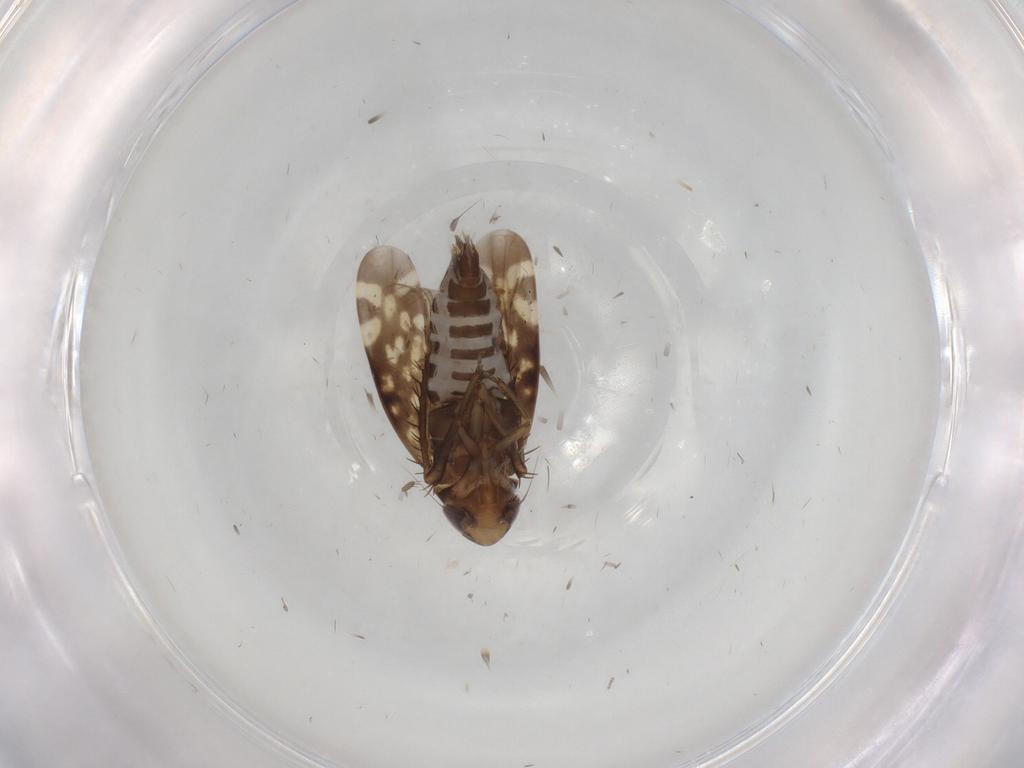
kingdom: Animalia
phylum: Arthropoda
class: Insecta
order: Hemiptera
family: Cicadellidae
